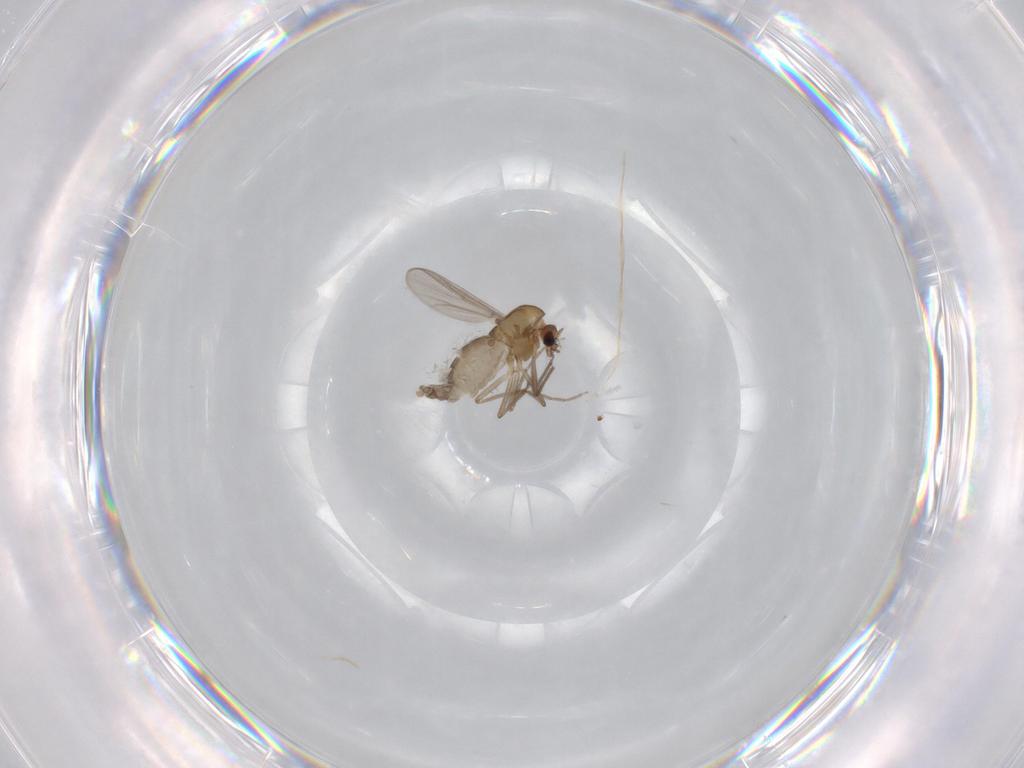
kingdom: Animalia
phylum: Arthropoda
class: Insecta
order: Diptera
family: Chironomidae
